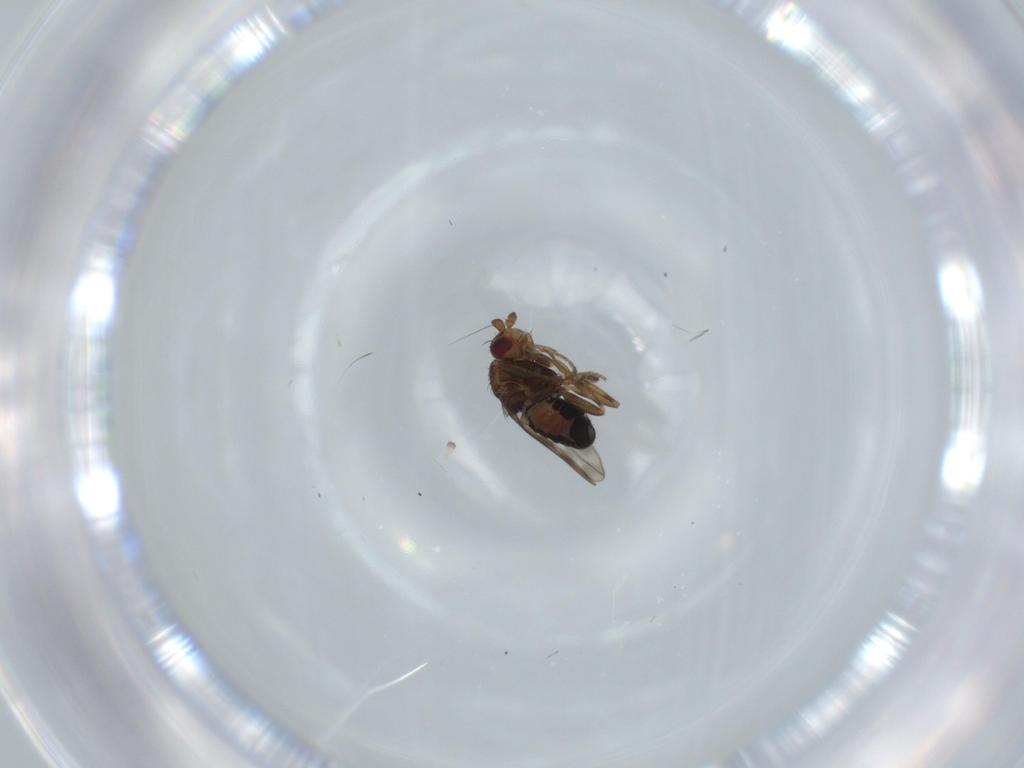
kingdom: Animalia
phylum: Arthropoda
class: Insecta
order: Diptera
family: Sphaeroceridae
